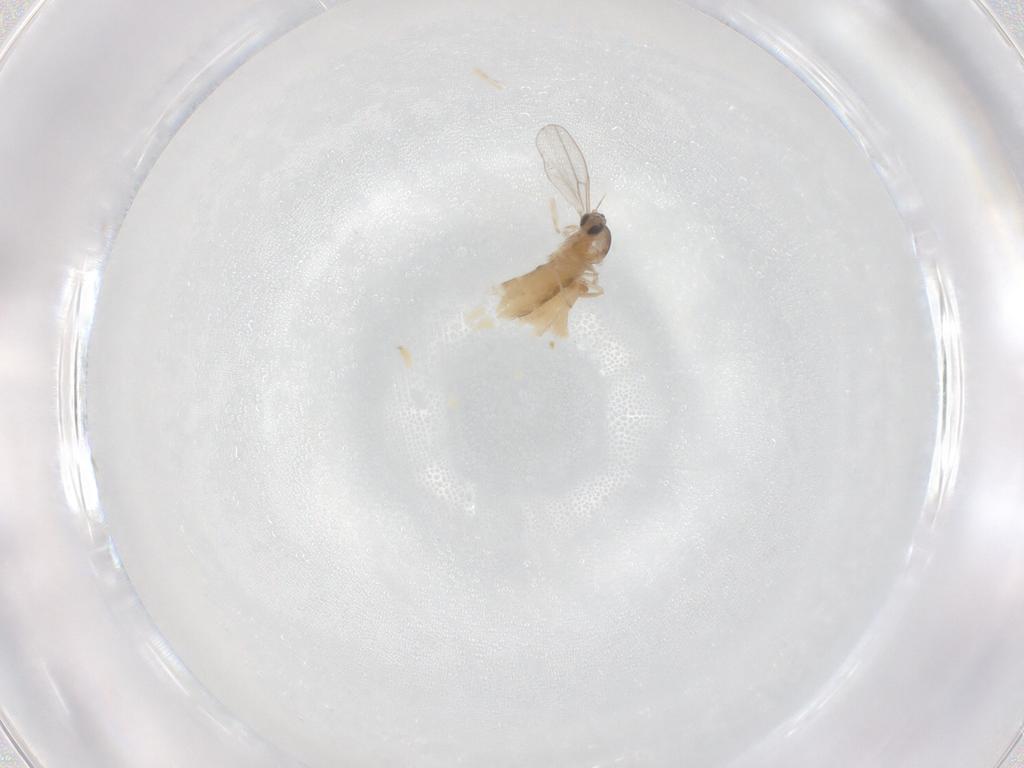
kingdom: Animalia
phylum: Arthropoda
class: Insecta
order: Diptera
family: Cecidomyiidae
